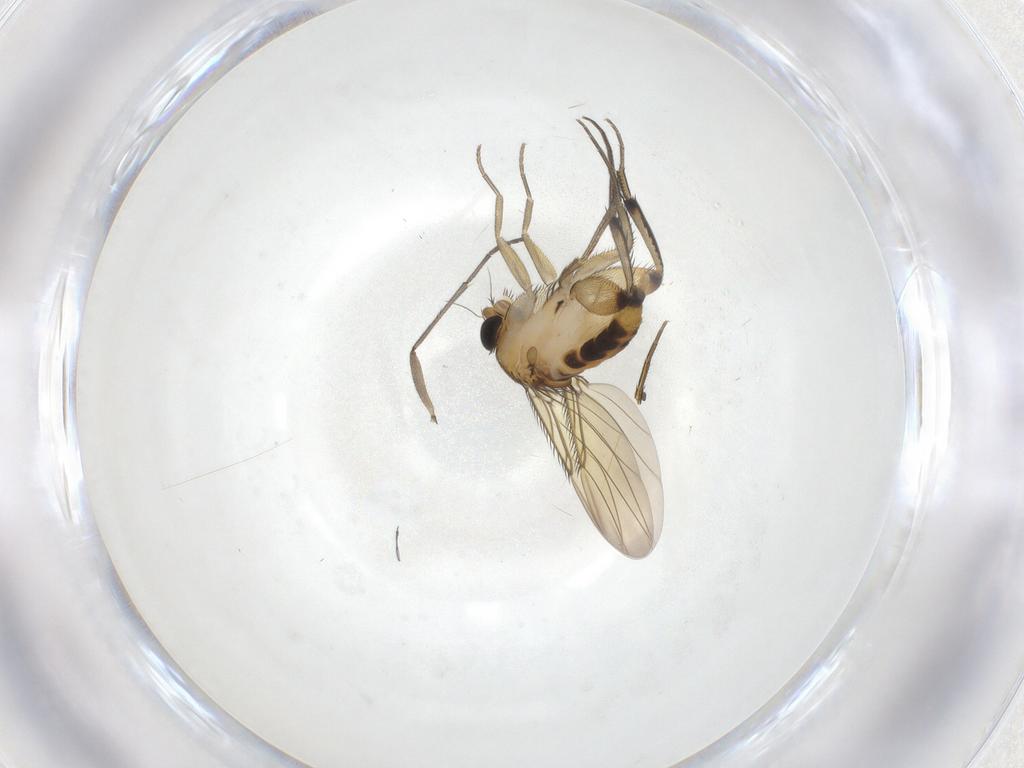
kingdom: Animalia
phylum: Arthropoda
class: Insecta
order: Diptera
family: Phoridae
